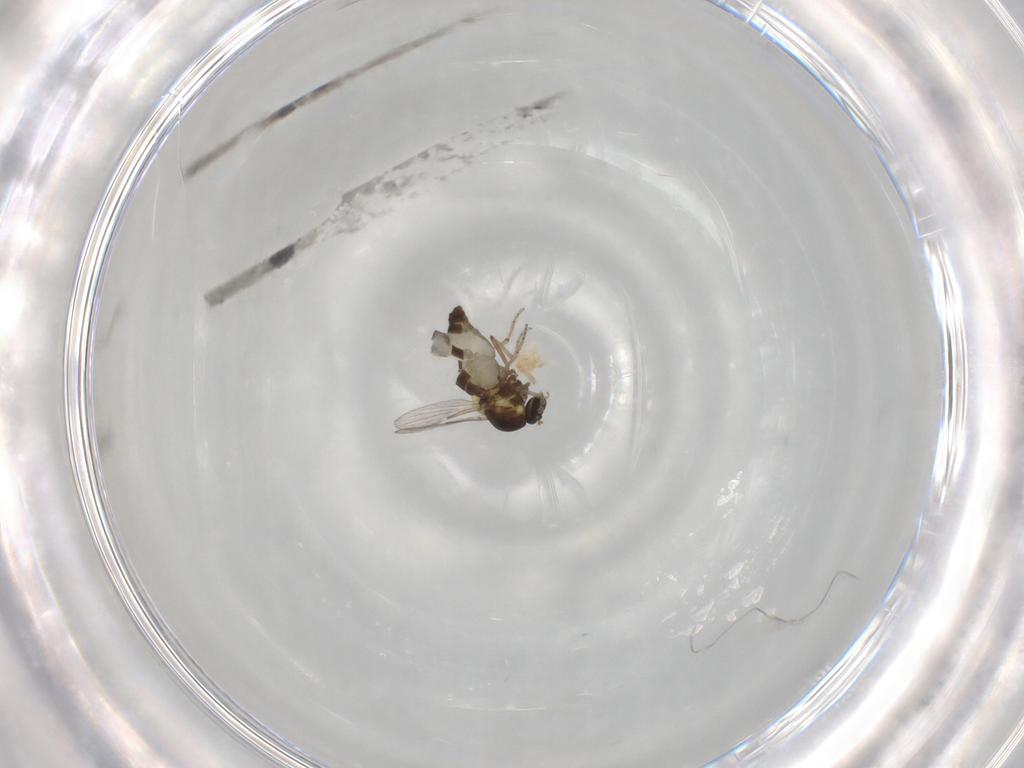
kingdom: Animalia
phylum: Arthropoda
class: Insecta
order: Diptera
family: Ceratopogonidae
